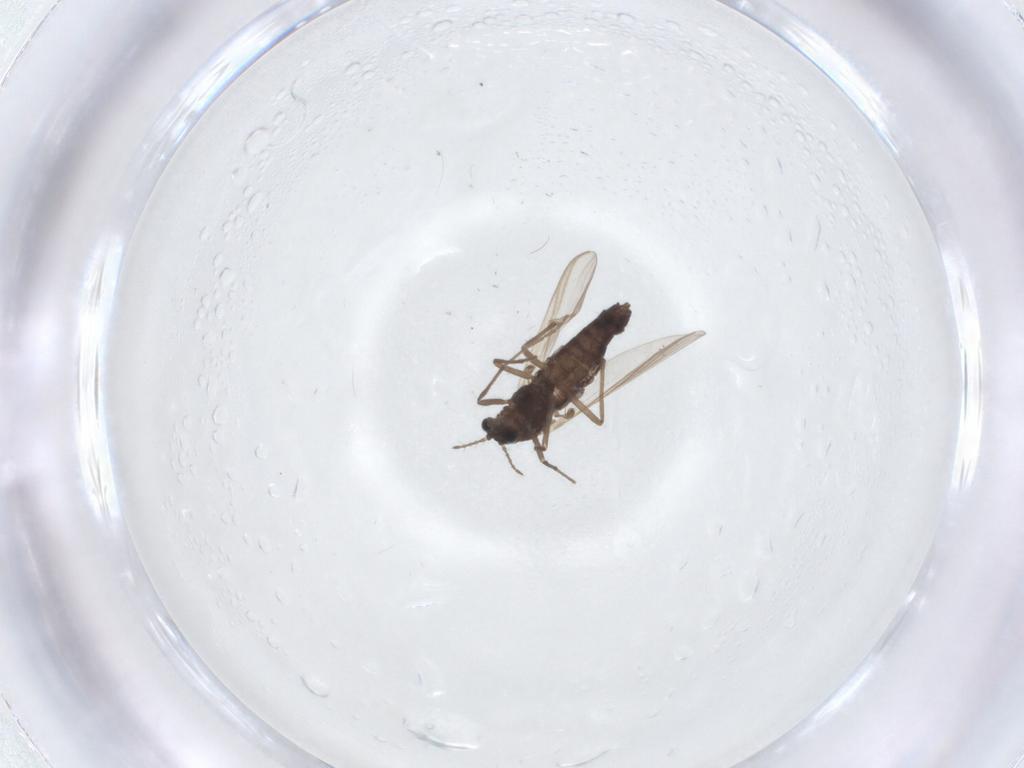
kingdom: Animalia
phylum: Arthropoda
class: Insecta
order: Diptera
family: Chironomidae
